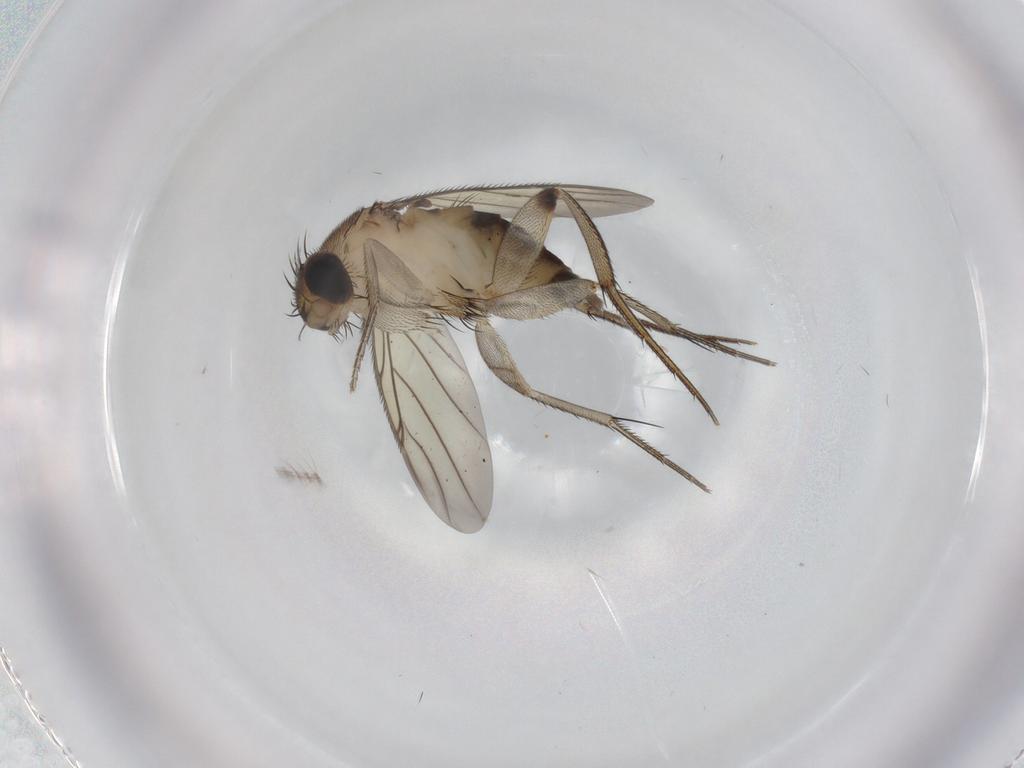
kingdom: Animalia
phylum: Arthropoda
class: Insecta
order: Diptera
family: Phoridae
